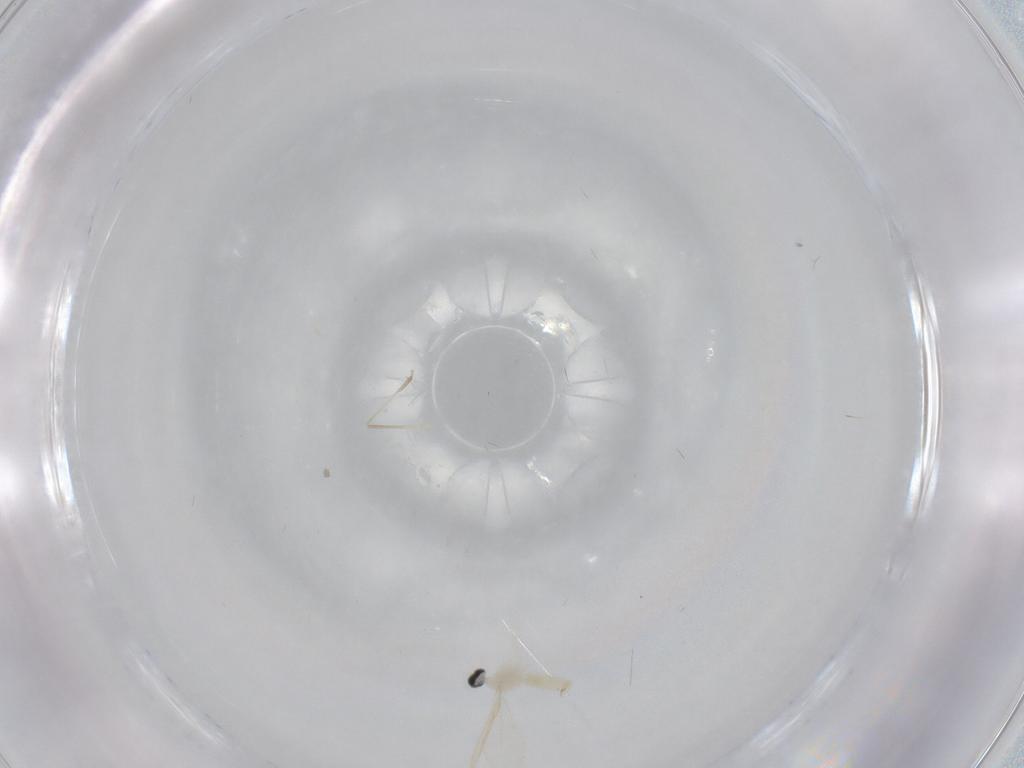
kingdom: Animalia
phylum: Arthropoda
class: Insecta
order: Diptera
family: Cecidomyiidae
